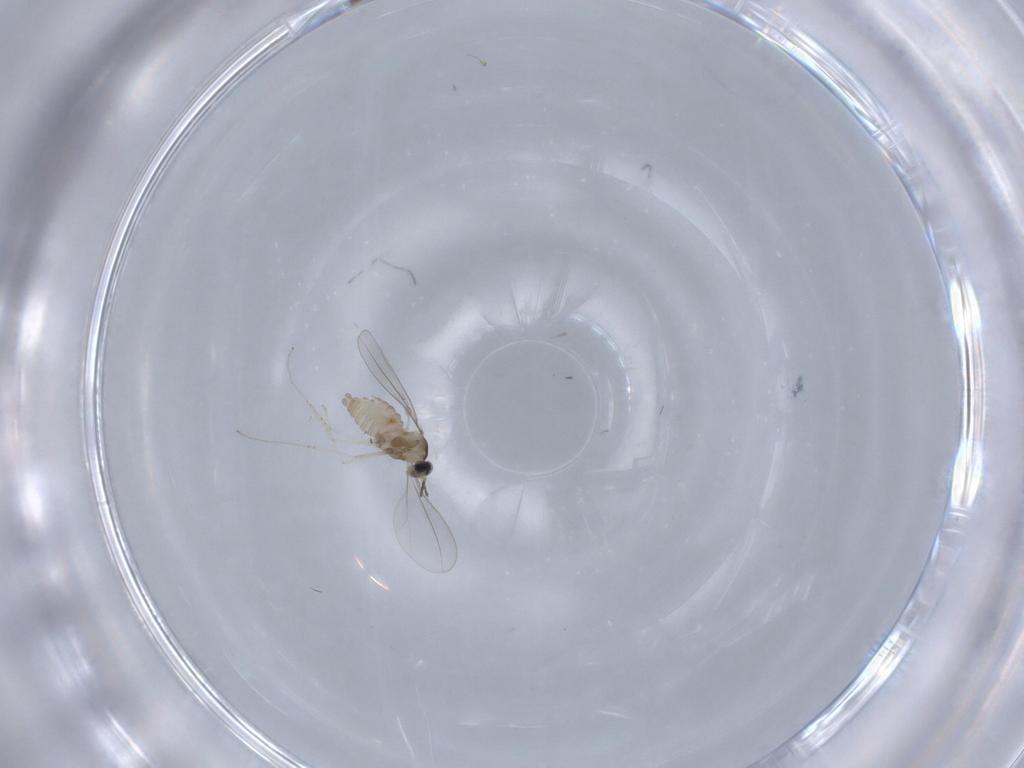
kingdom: Animalia
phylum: Arthropoda
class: Insecta
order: Diptera
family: Cecidomyiidae
